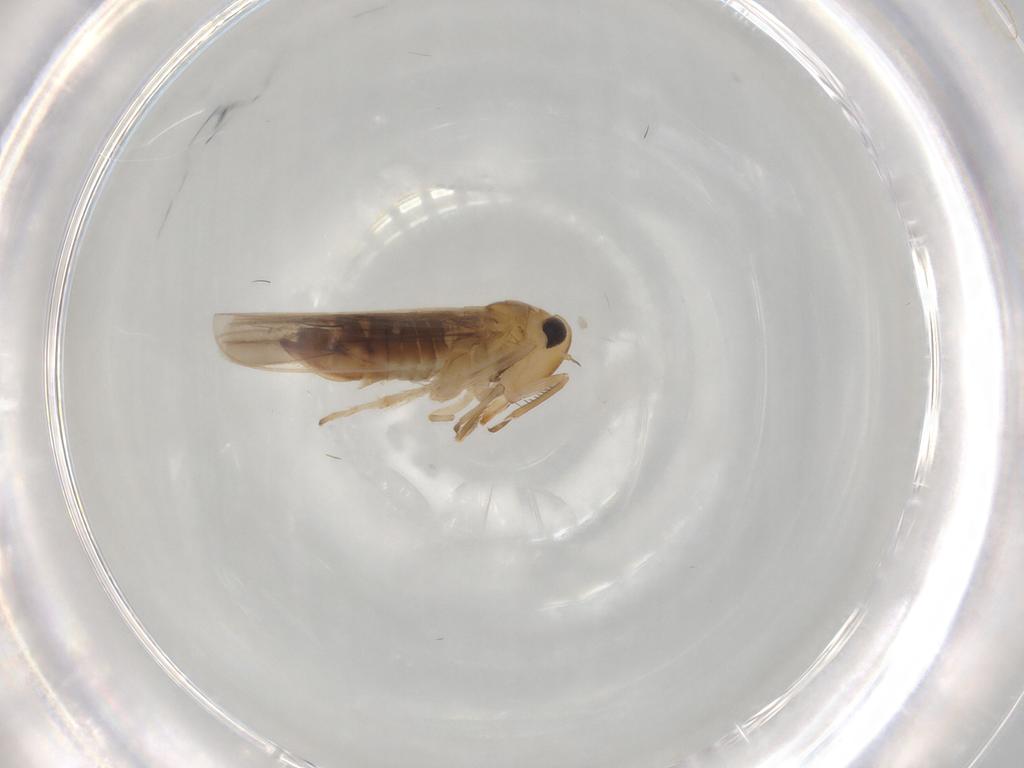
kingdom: Animalia
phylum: Arthropoda
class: Insecta
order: Hemiptera
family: Cicadellidae
